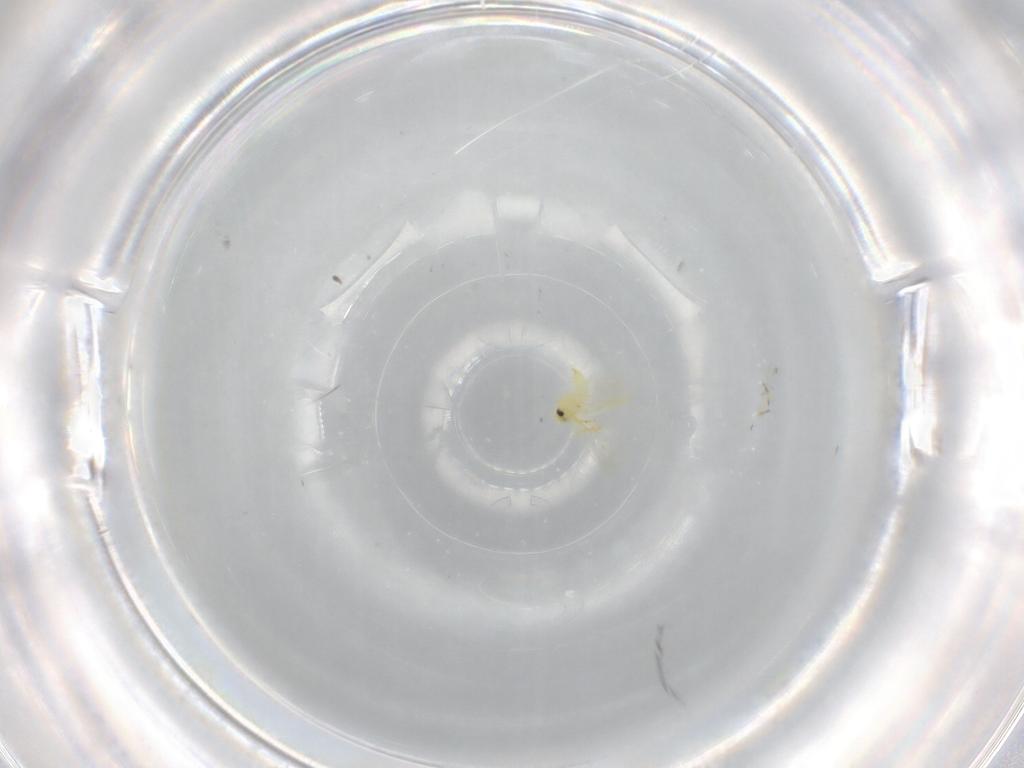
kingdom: Animalia
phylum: Arthropoda
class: Insecta
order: Hemiptera
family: Aleyrodidae
